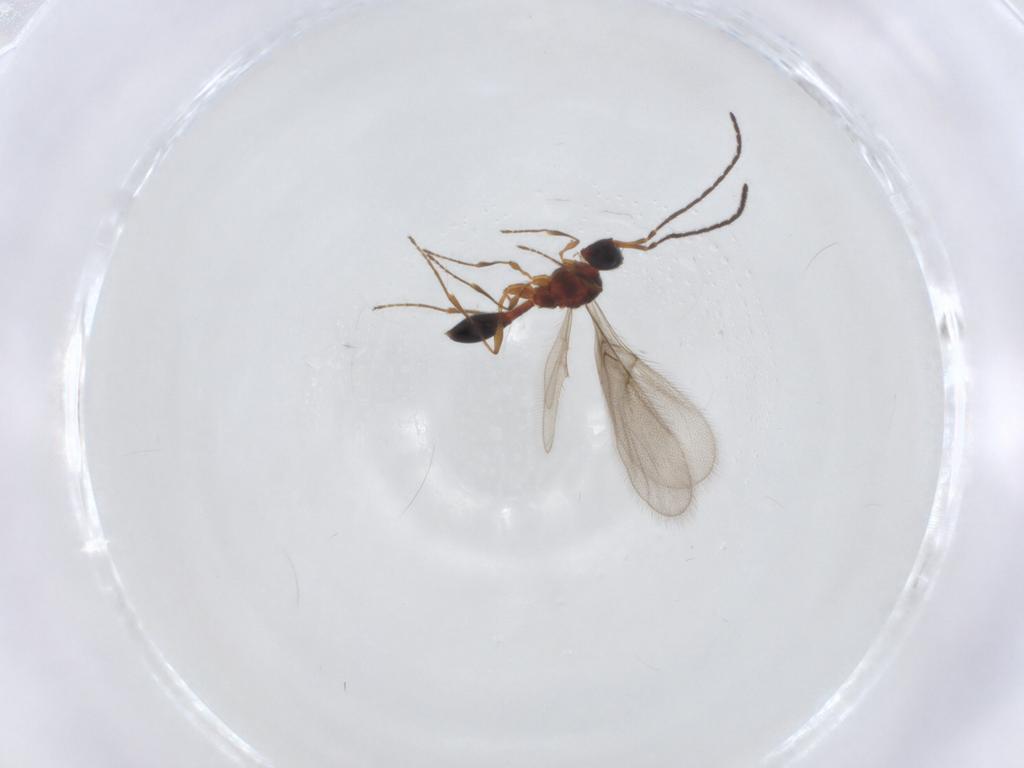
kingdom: Animalia
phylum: Arthropoda
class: Insecta
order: Hymenoptera
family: Diapriidae
